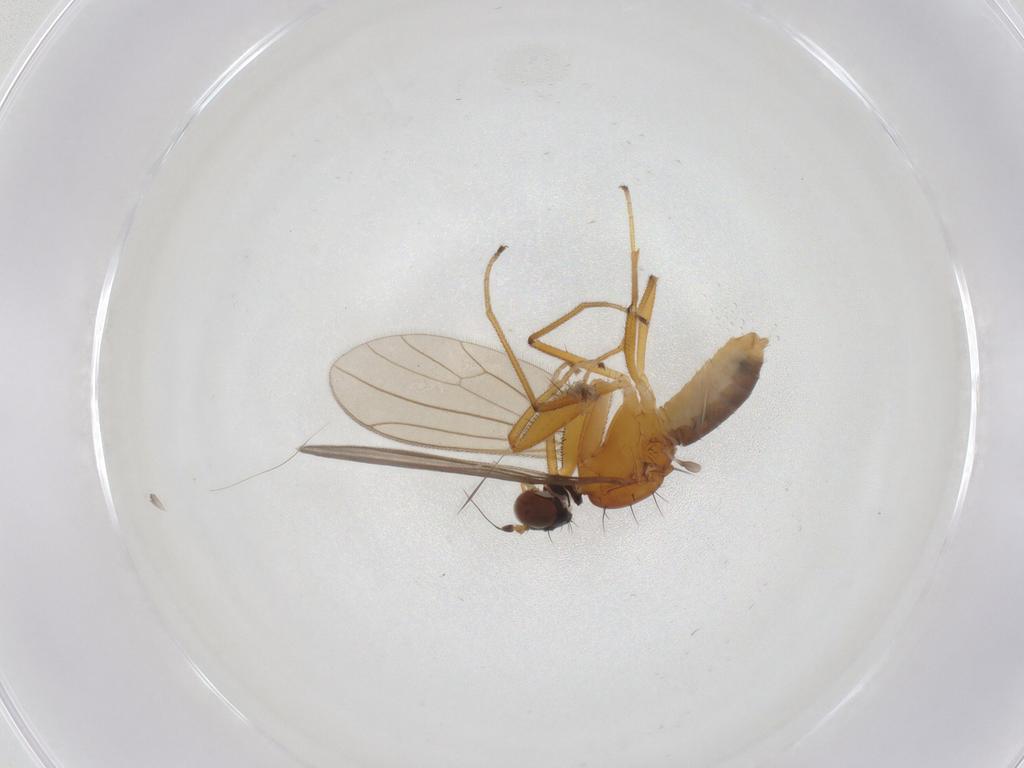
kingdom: Animalia
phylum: Arthropoda
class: Insecta
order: Diptera
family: Empididae
